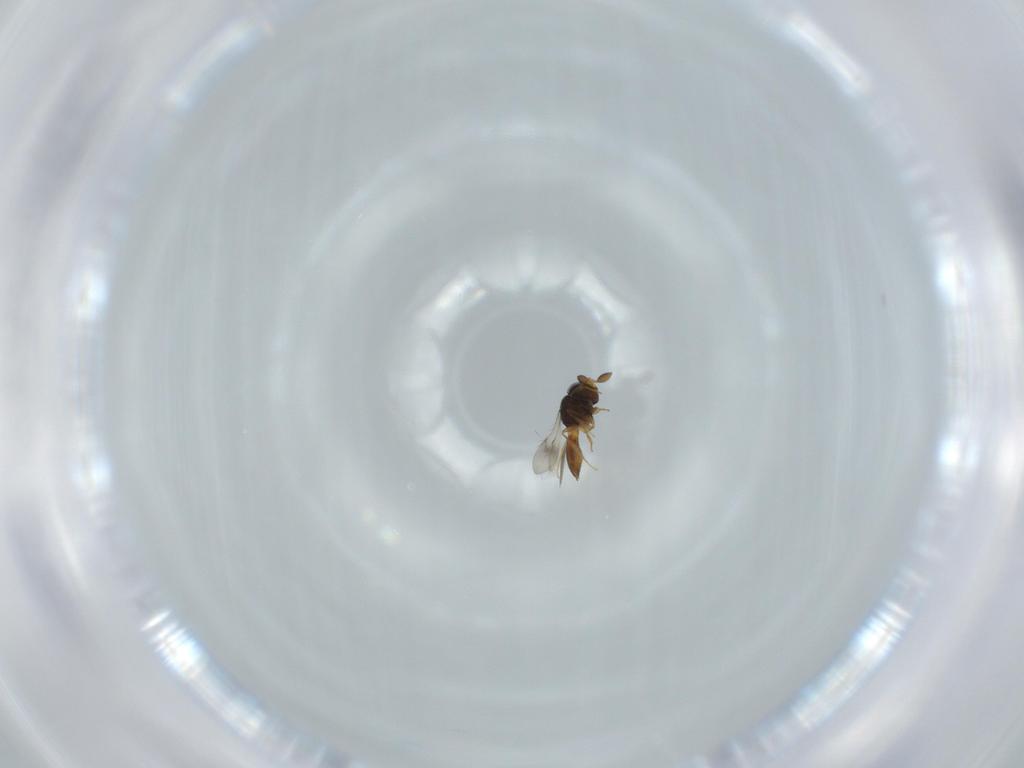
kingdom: Animalia
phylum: Arthropoda
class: Insecta
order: Hymenoptera
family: Scelionidae
